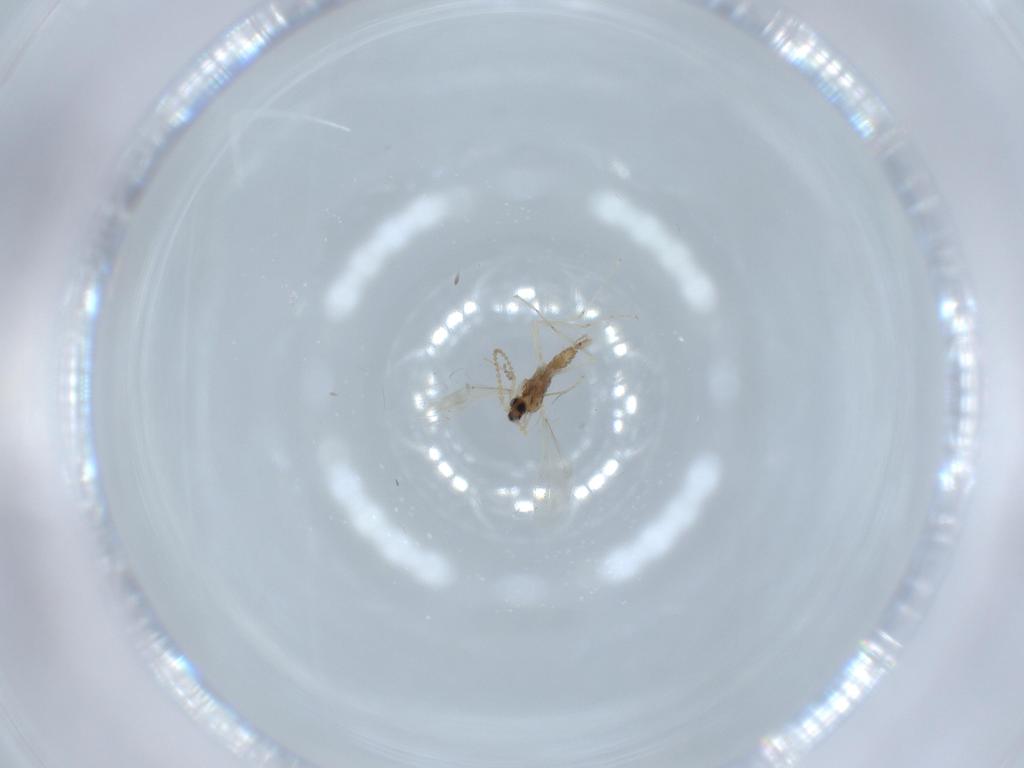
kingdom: Animalia
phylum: Arthropoda
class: Insecta
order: Diptera
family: Cecidomyiidae
